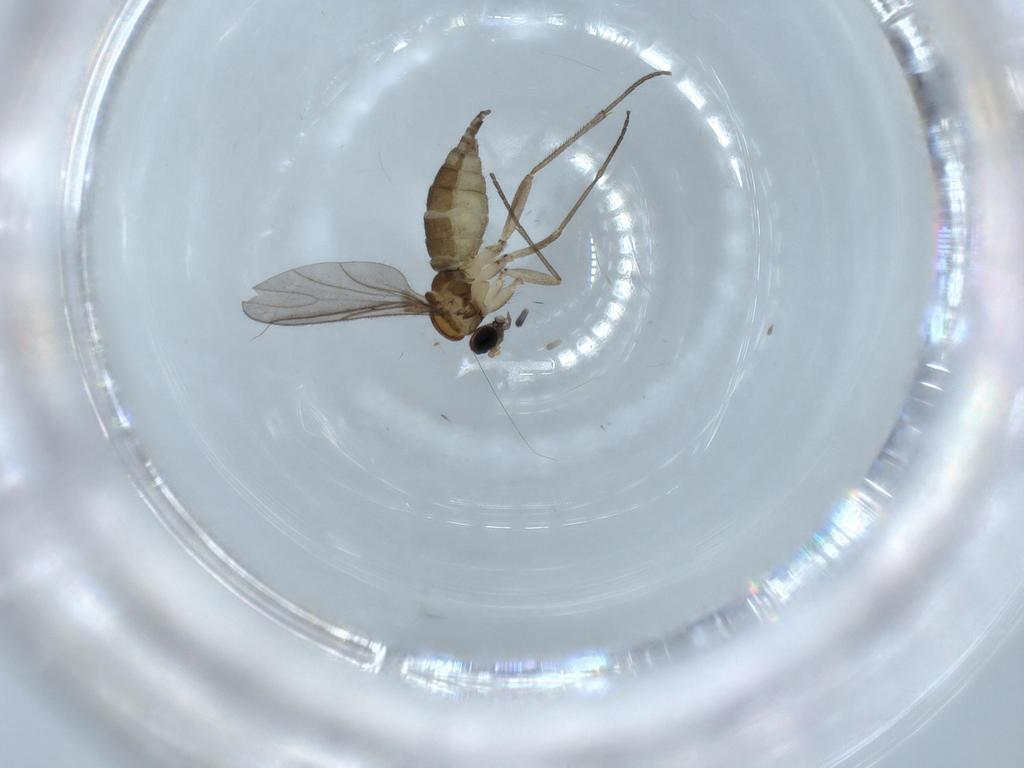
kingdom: Animalia
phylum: Arthropoda
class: Insecta
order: Diptera
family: Sciaridae
